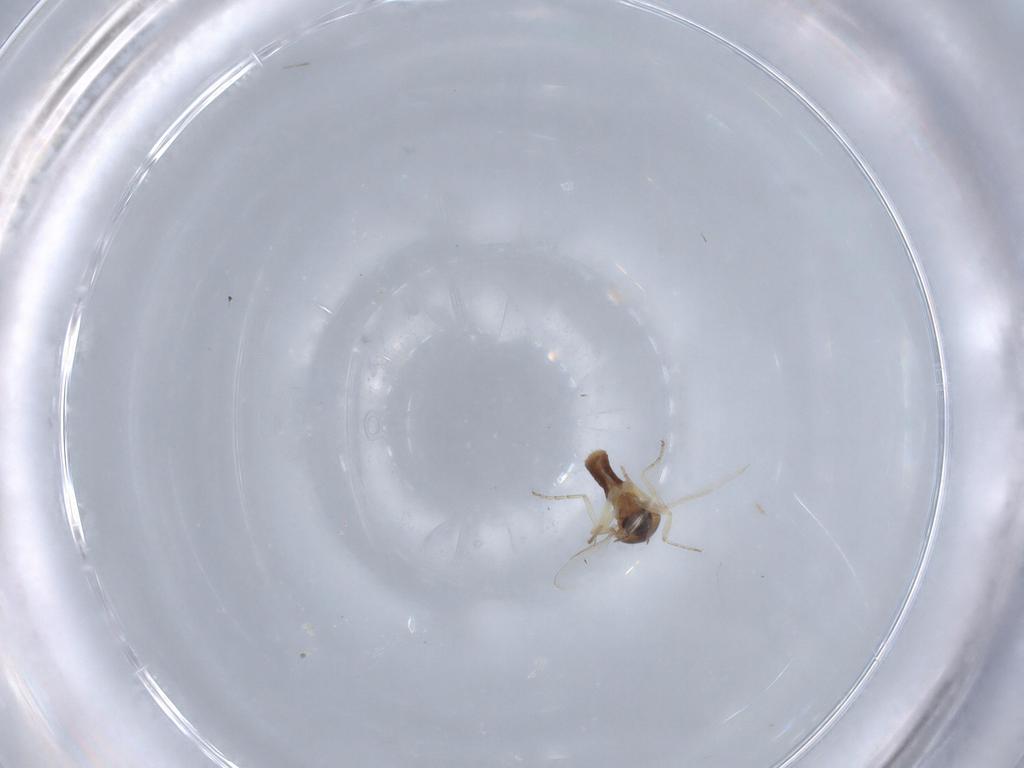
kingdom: Animalia
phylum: Arthropoda
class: Insecta
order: Diptera
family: Ceratopogonidae
